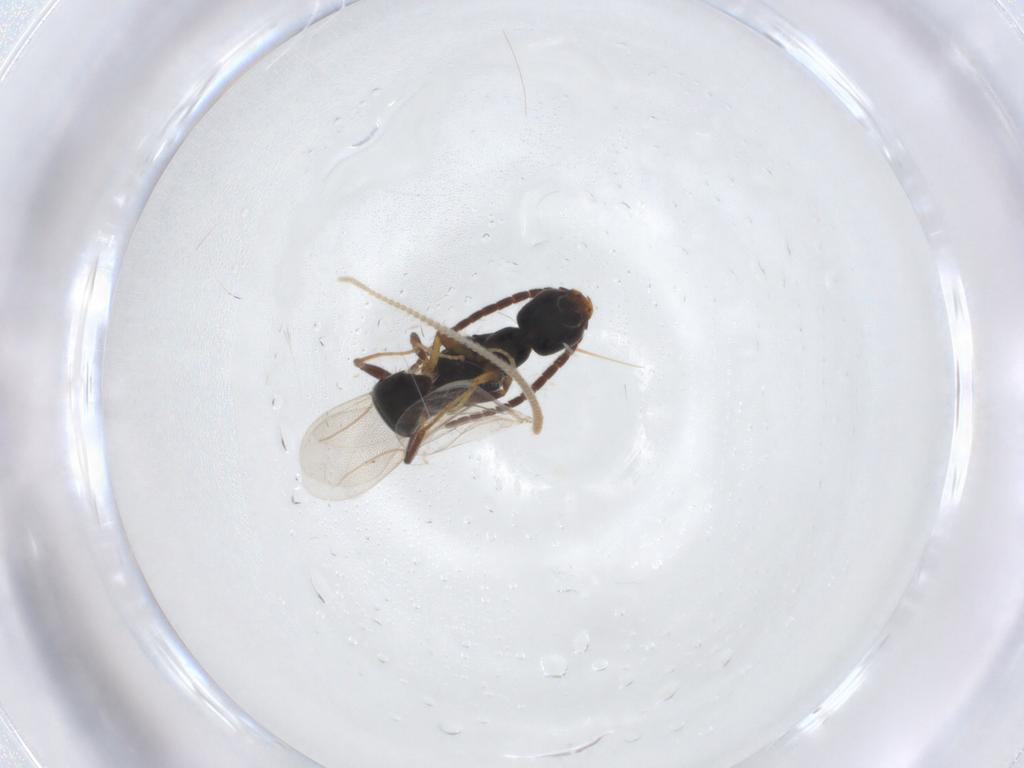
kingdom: Animalia
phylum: Arthropoda
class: Insecta
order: Hymenoptera
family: Bethylidae
